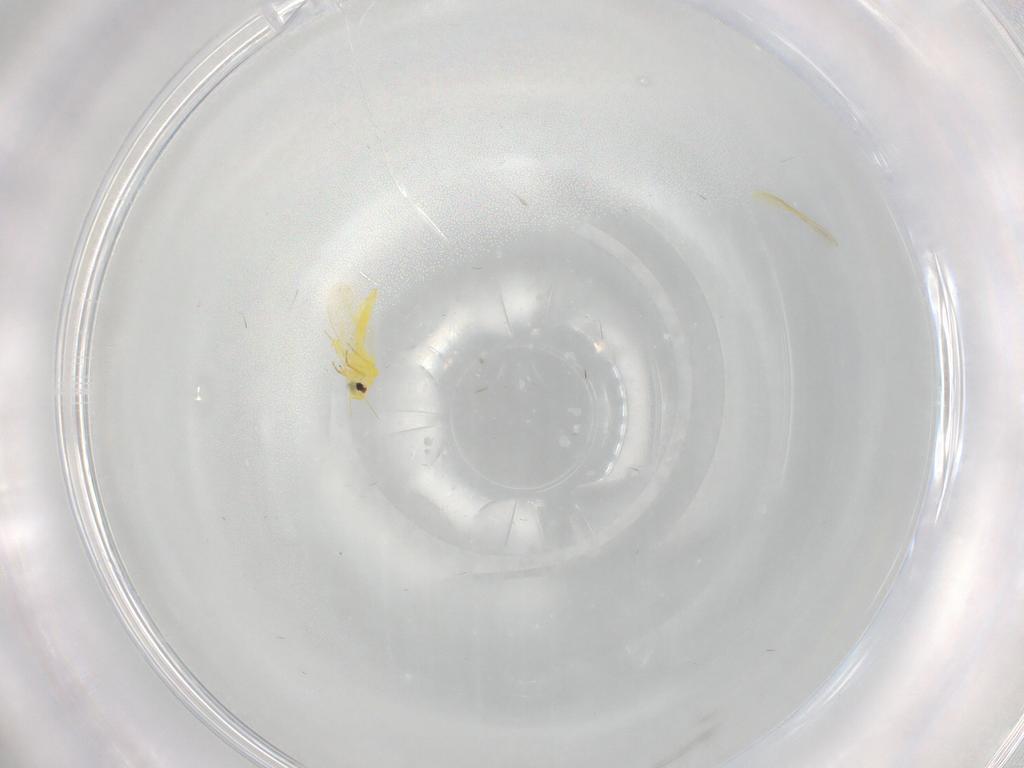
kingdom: Animalia
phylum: Arthropoda
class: Insecta
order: Hemiptera
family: Aleyrodidae
